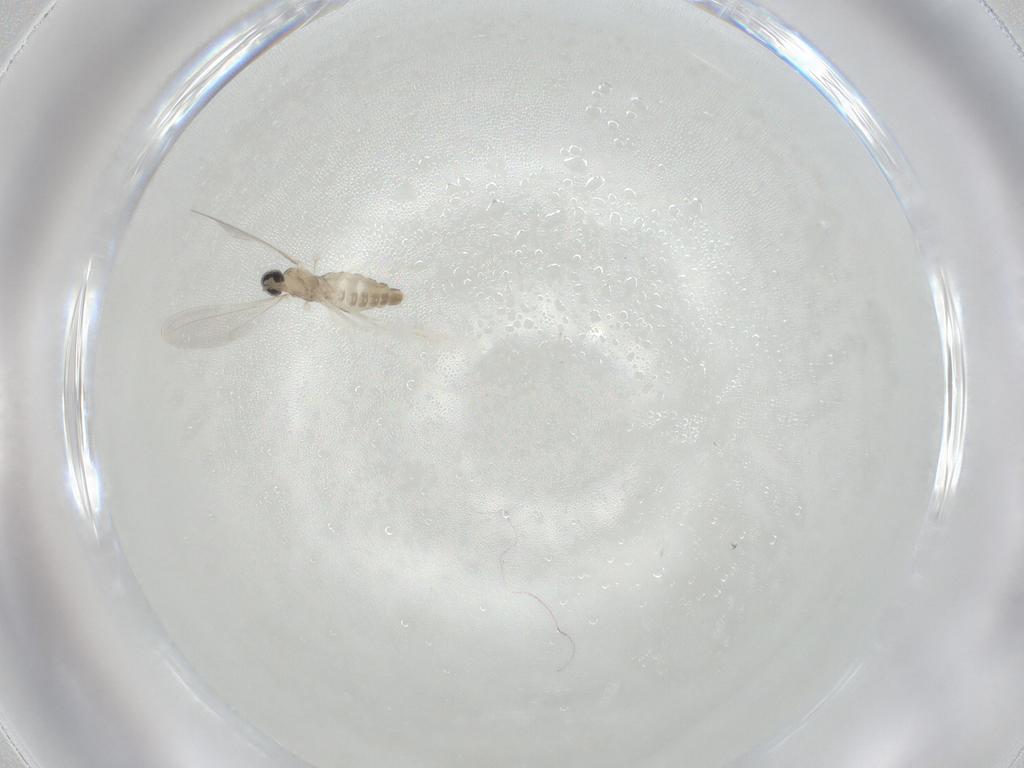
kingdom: Animalia
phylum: Arthropoda
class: Insecta
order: Diptera
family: Cecidomyiidae
